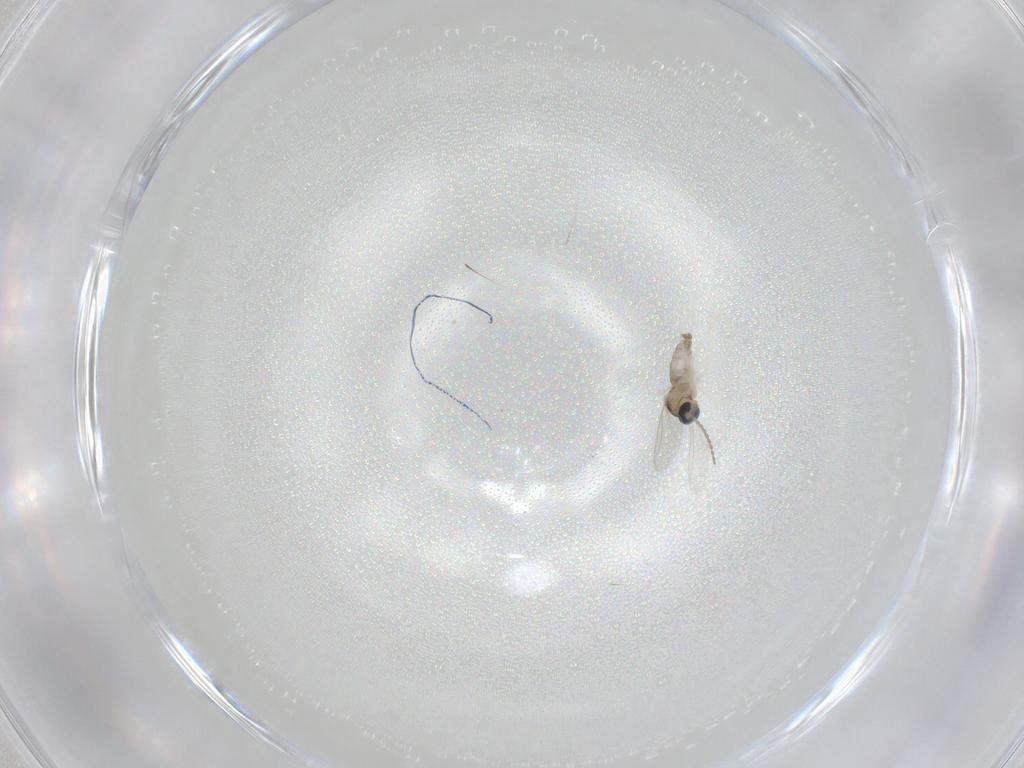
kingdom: Animalia
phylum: Arthropoda
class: Insecta
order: Diptera
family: Cecidomyiidae
